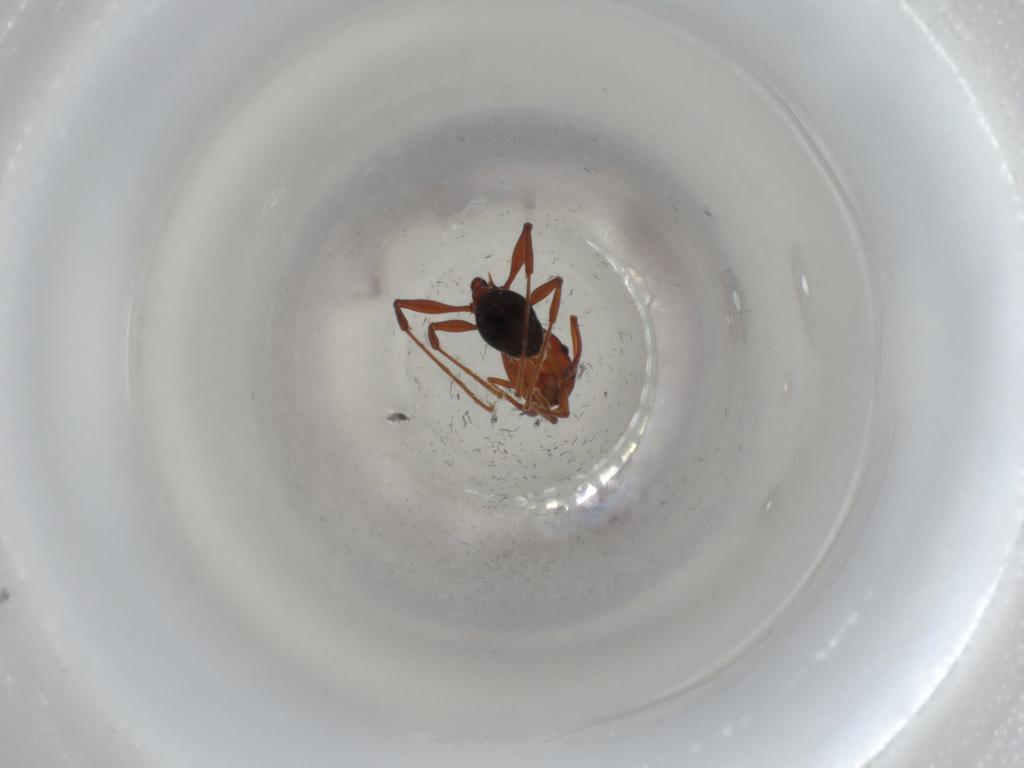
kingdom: Animalia
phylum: Arthropoda
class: Insecta
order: Hymenoptera
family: Formicidae
